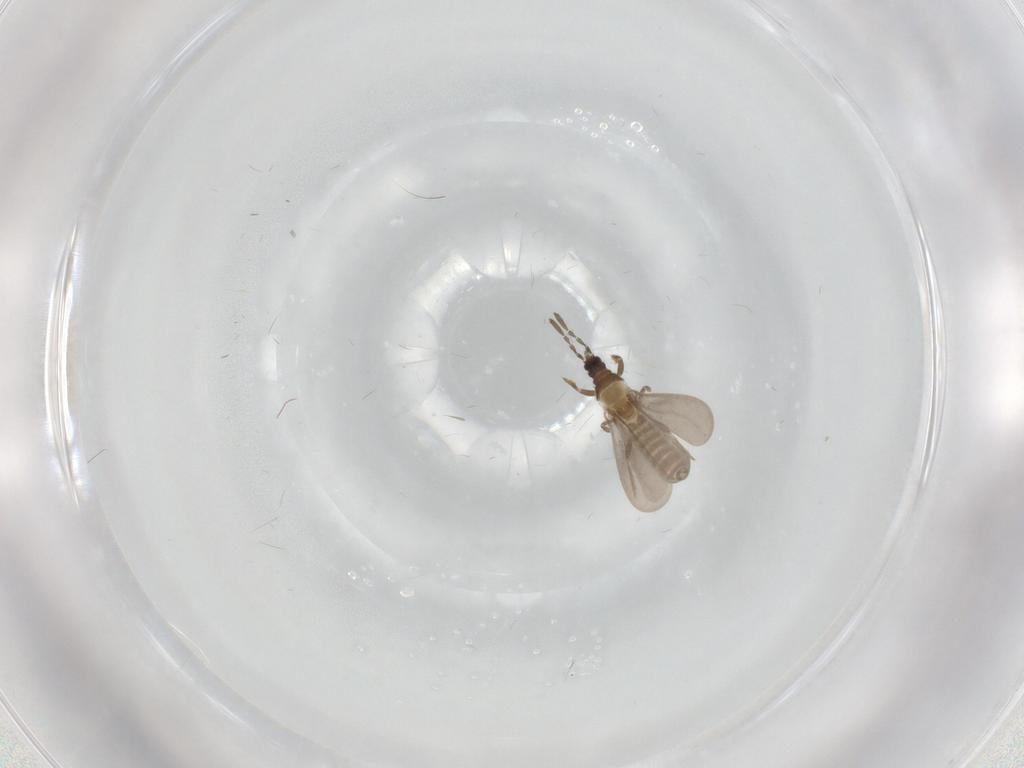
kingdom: Animalia
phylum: Arthropoda
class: Insecta
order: Hemiptera
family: Enicocephalidae
